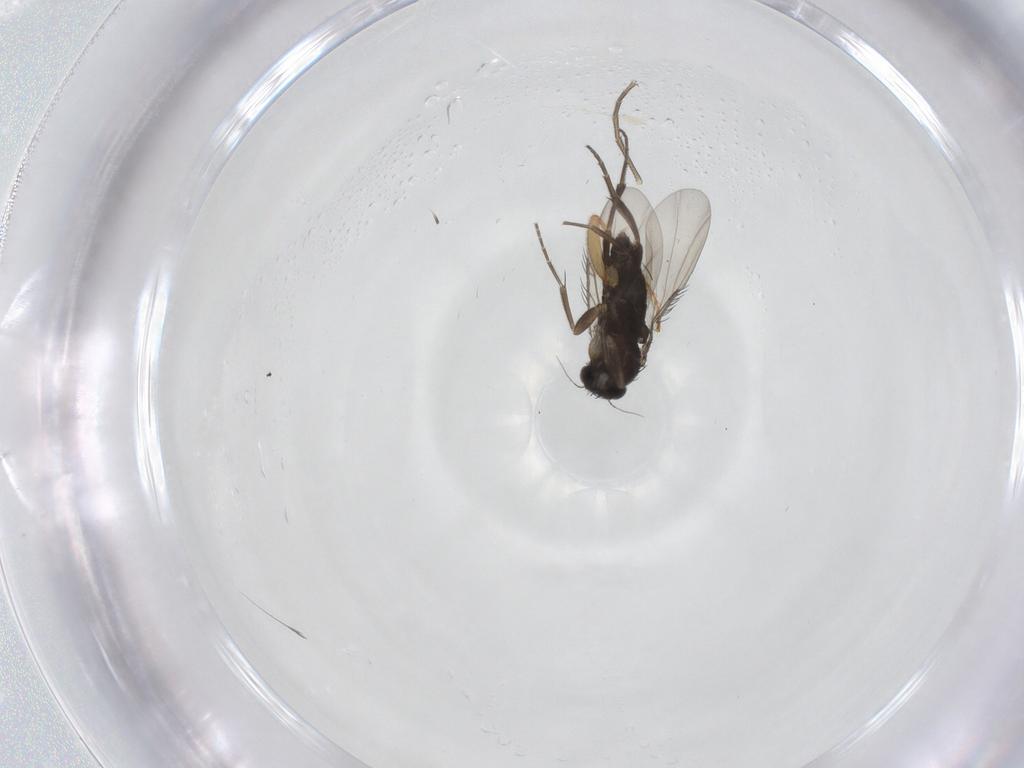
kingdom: Animalia
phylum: Arthropoda
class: Insecta
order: Diptera
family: Phoridae
